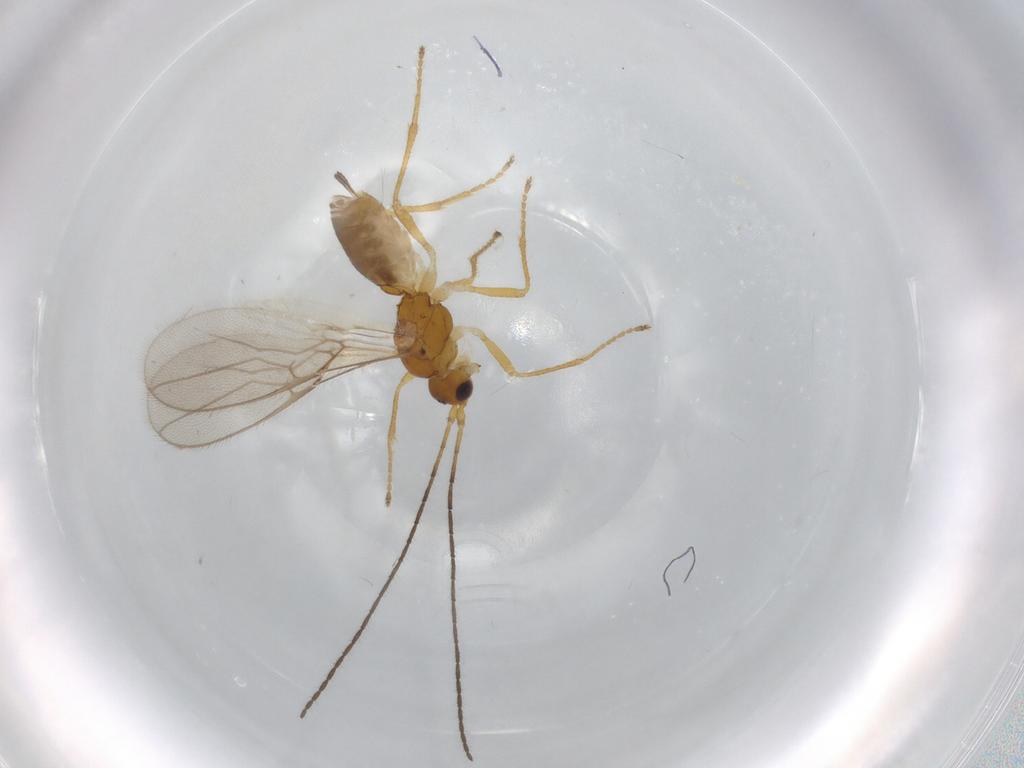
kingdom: Animalia
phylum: Arthropoda
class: Insecta
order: Hymenoptera
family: Braconidae
